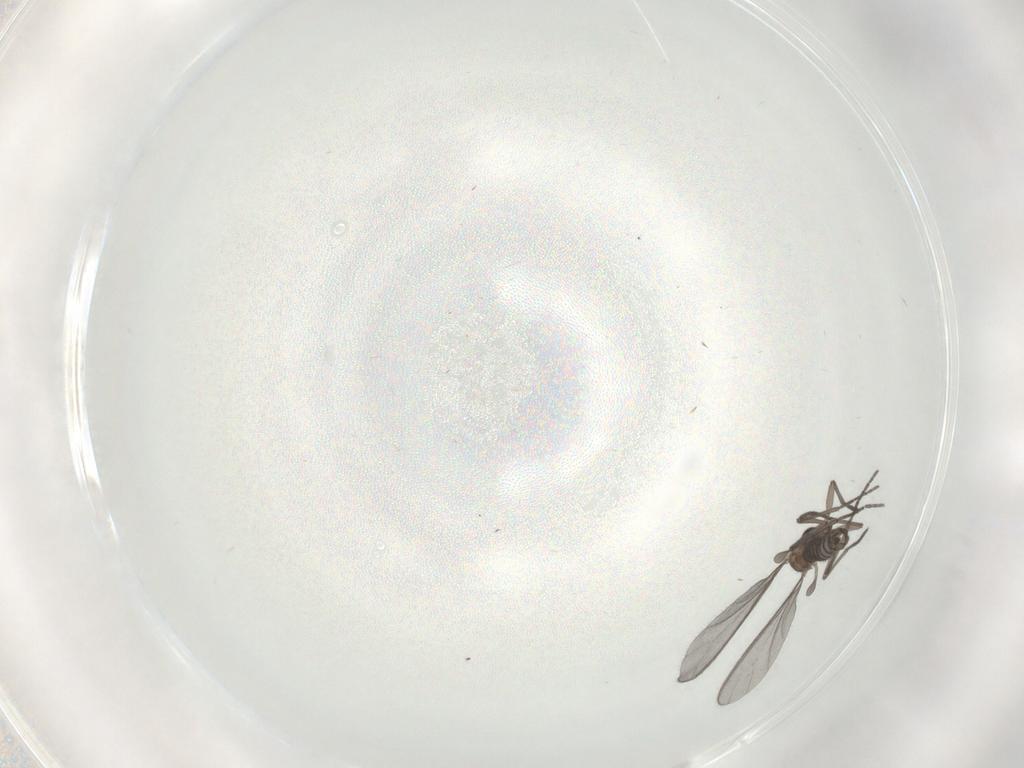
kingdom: Animalia
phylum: Arthropoda
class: Insecta
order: Diptera
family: Sciaridae
